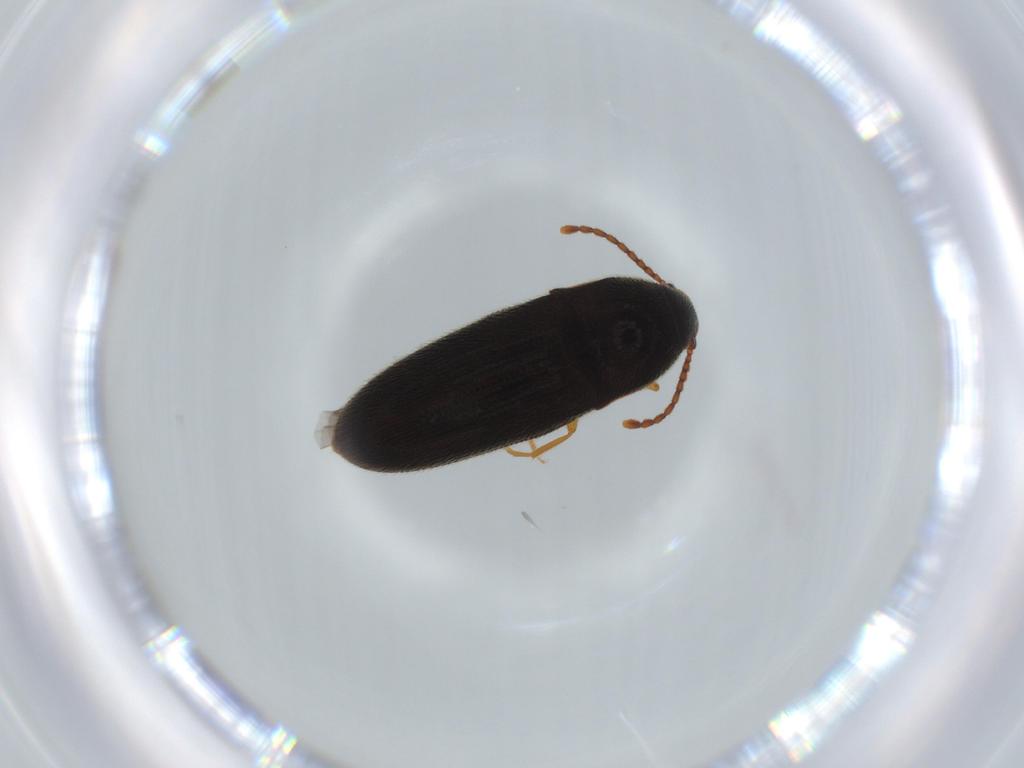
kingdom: Animalia
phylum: Arthropoda
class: Insecta
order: Coleoptera
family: Elateridae
